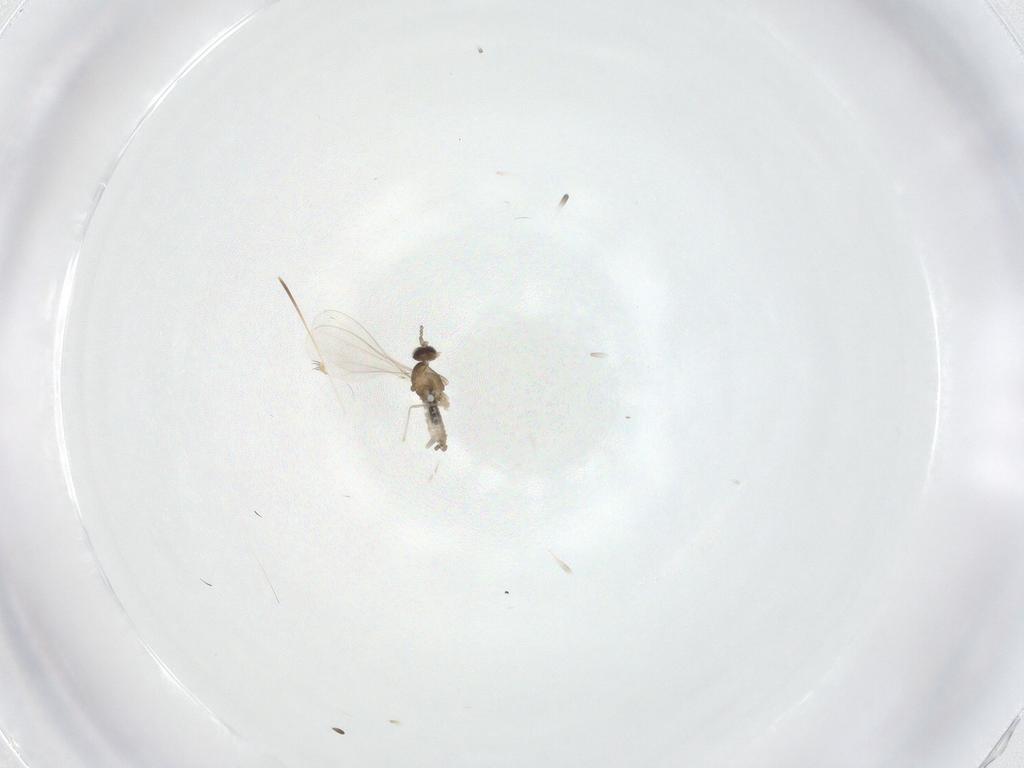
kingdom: Animalia
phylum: Arthropoda
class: Insecta
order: Diptera
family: Cecidomyiidae
